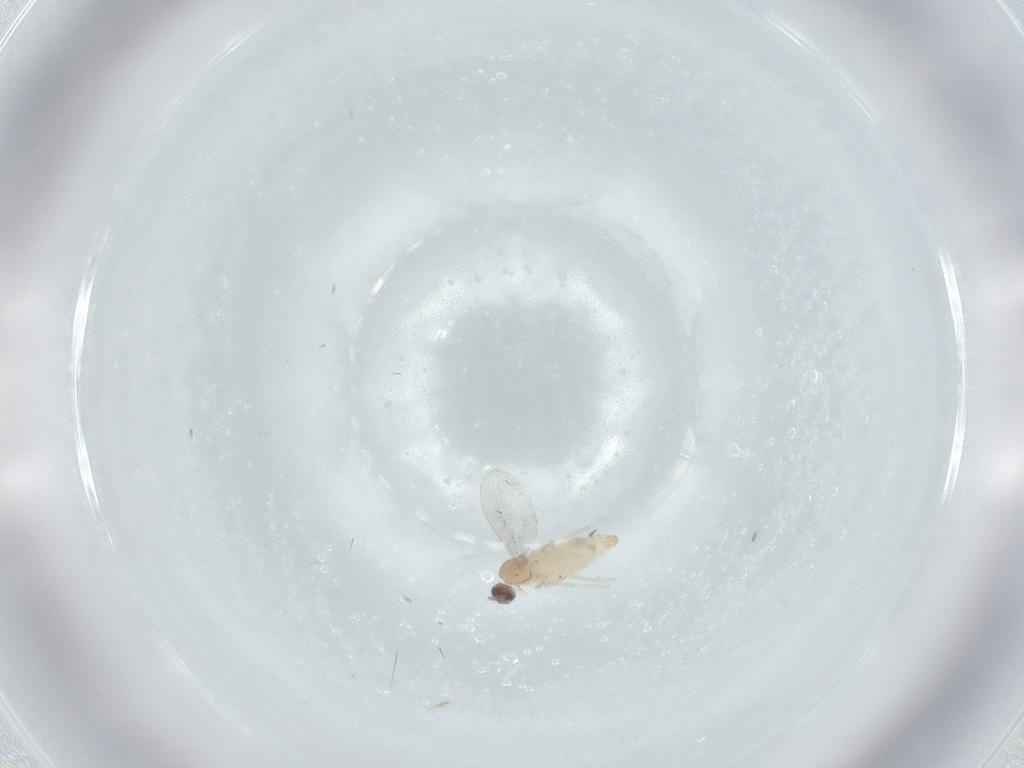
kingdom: Animalia
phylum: Arthropoda
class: Insecta
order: Diptera
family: Cecidomyiidae
